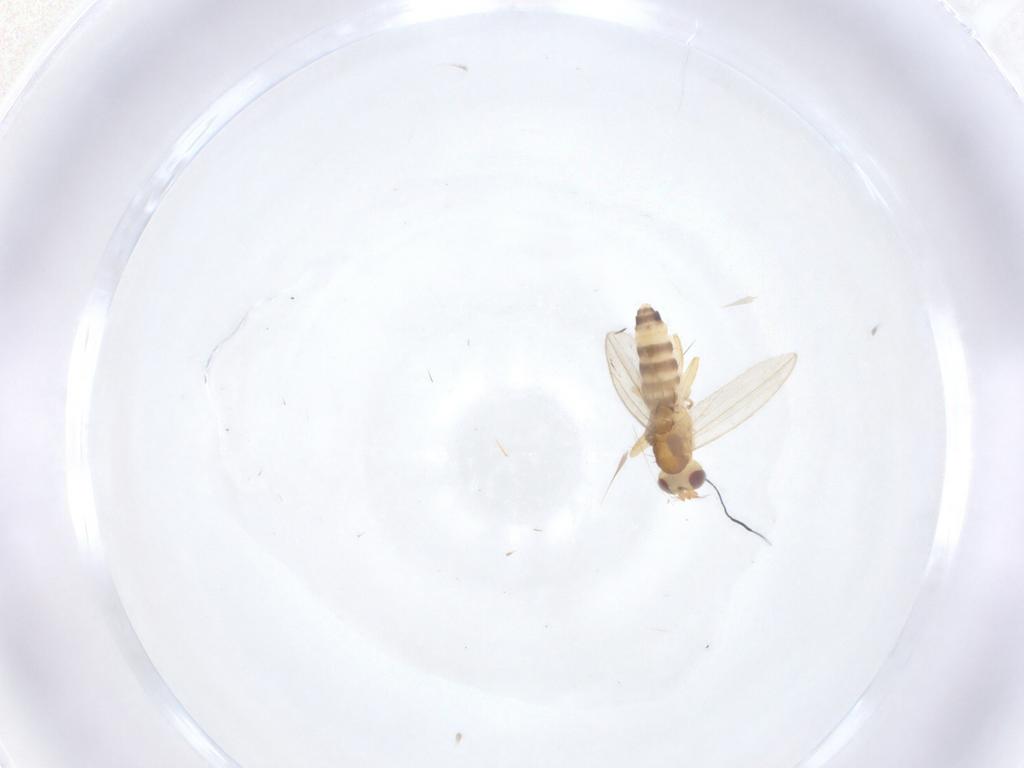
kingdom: Animalia
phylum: Arthropoda
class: Insecta
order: Diptera
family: Periscelididae
